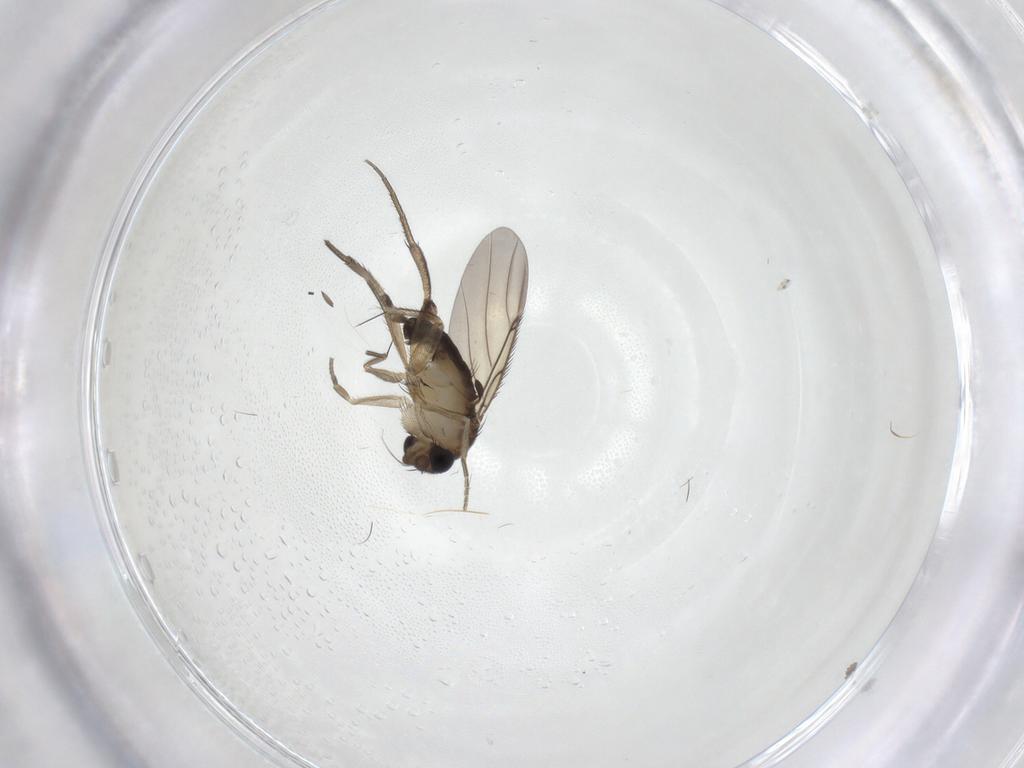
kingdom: Animalia
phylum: Arthropoda
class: Insecta
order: Diptera
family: Phoridae
